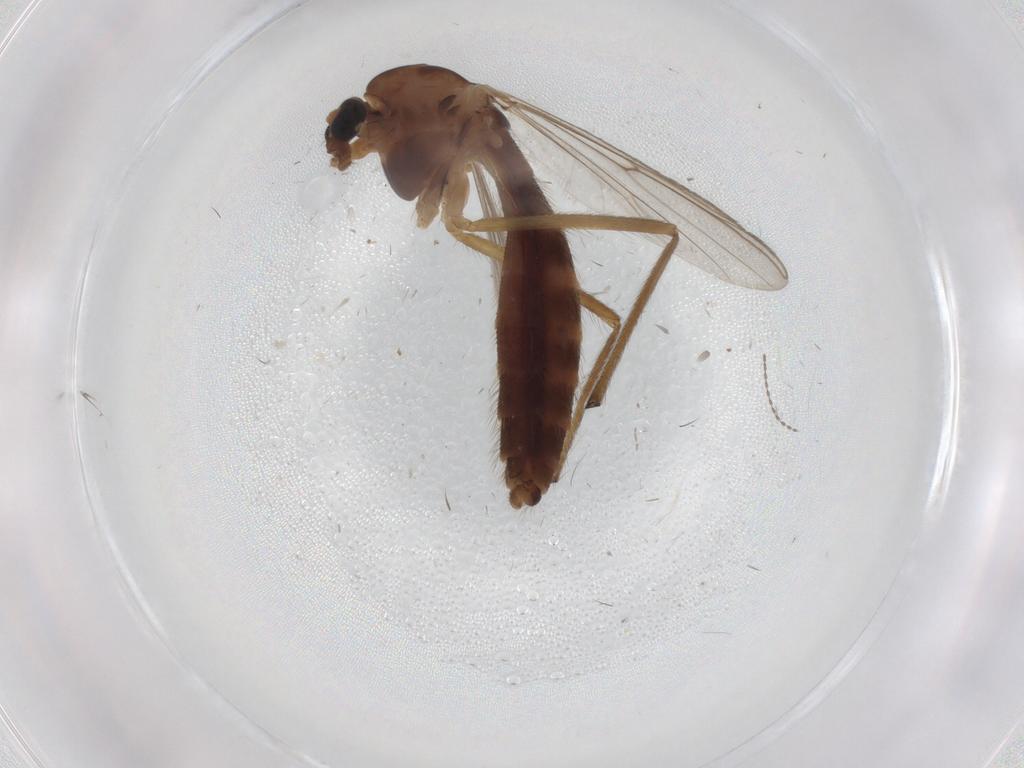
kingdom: Animalia
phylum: Arthropoda
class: Insecta
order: Diptera
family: Chironomidae
